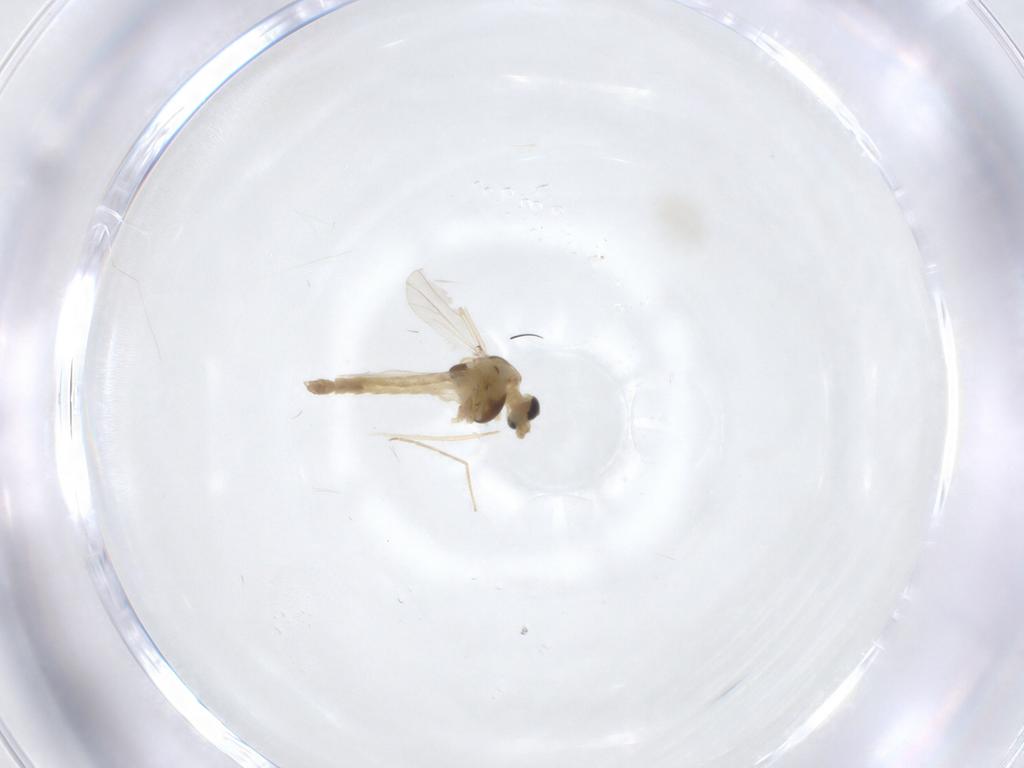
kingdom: Animalia
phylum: Arthropoda
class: Insecta
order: Diptera
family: Chironomidae
